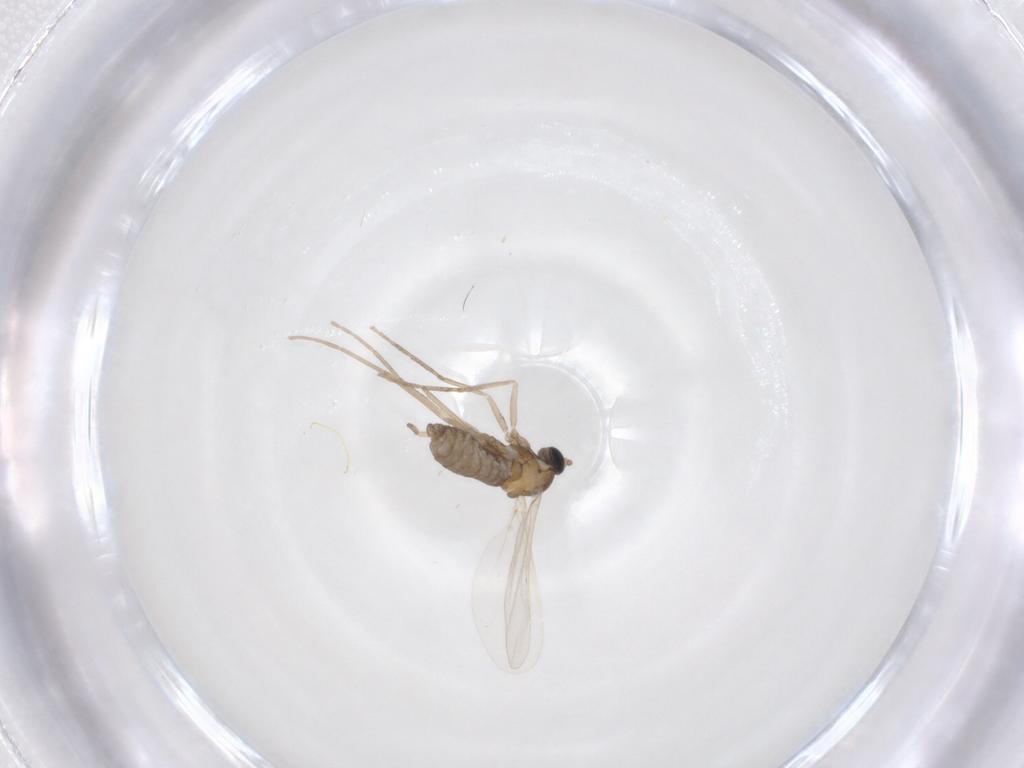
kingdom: Animalia
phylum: Arthropoda
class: Insecta
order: Diptera
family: Cecidomyiidae
